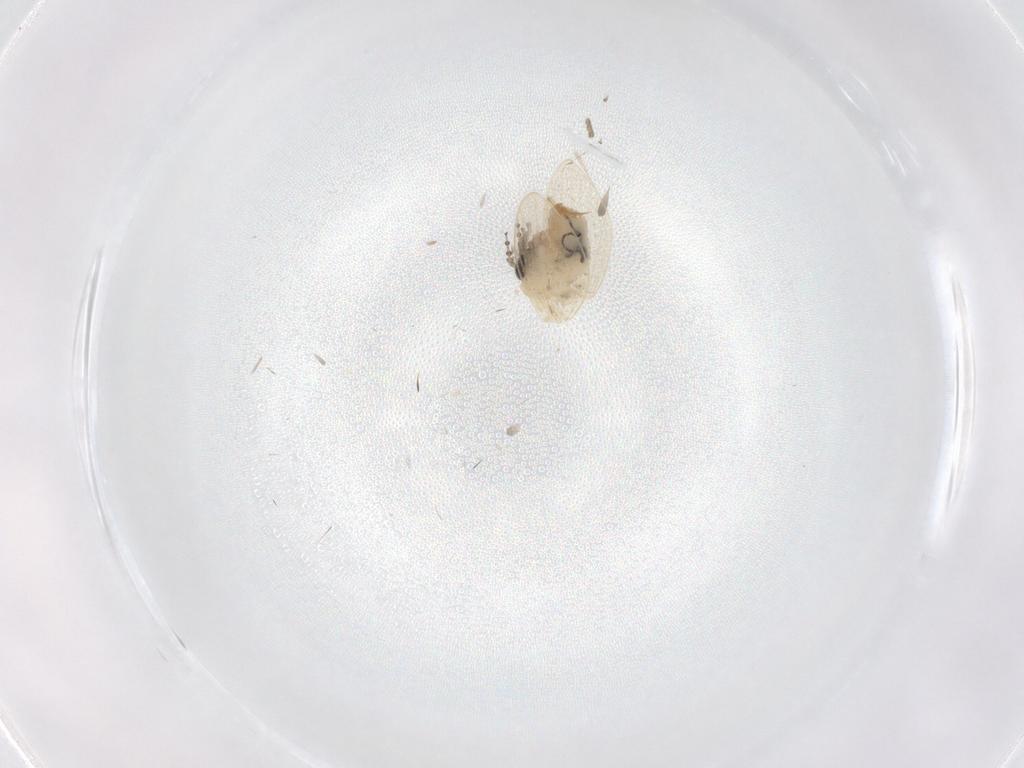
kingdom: Animalia
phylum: Arthropoda
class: Insecta
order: Diptera
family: Psychodidae
